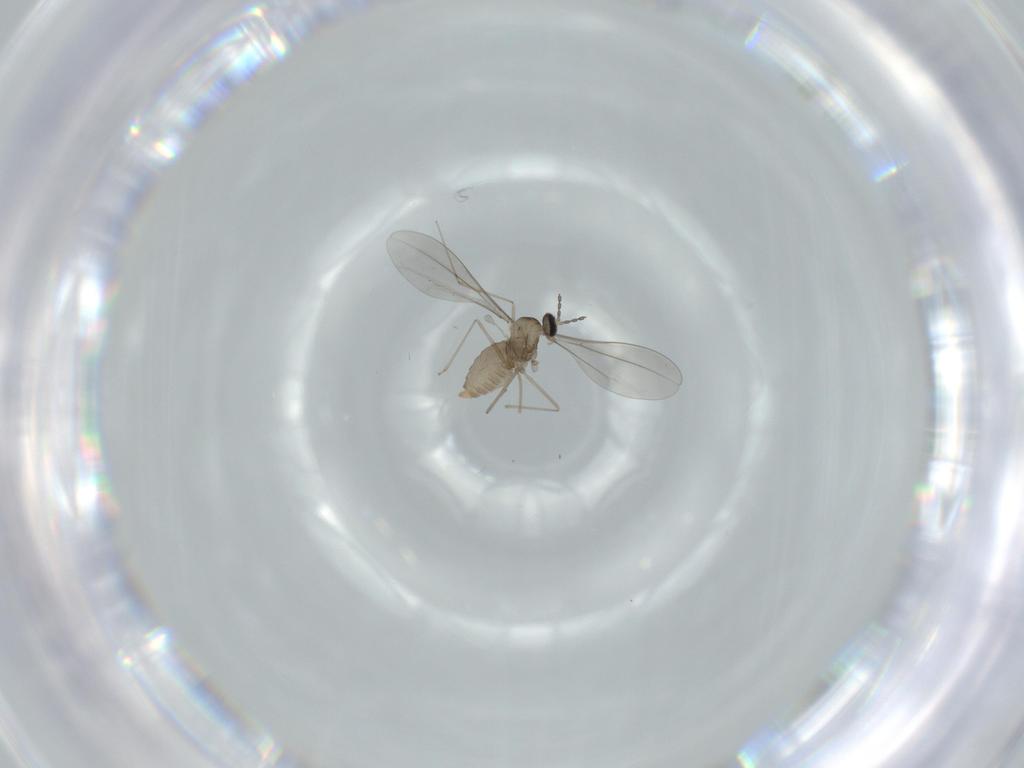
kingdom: Animalia
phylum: Arthropoda
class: Insecta
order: Diptera
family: Cecidomyiidae
